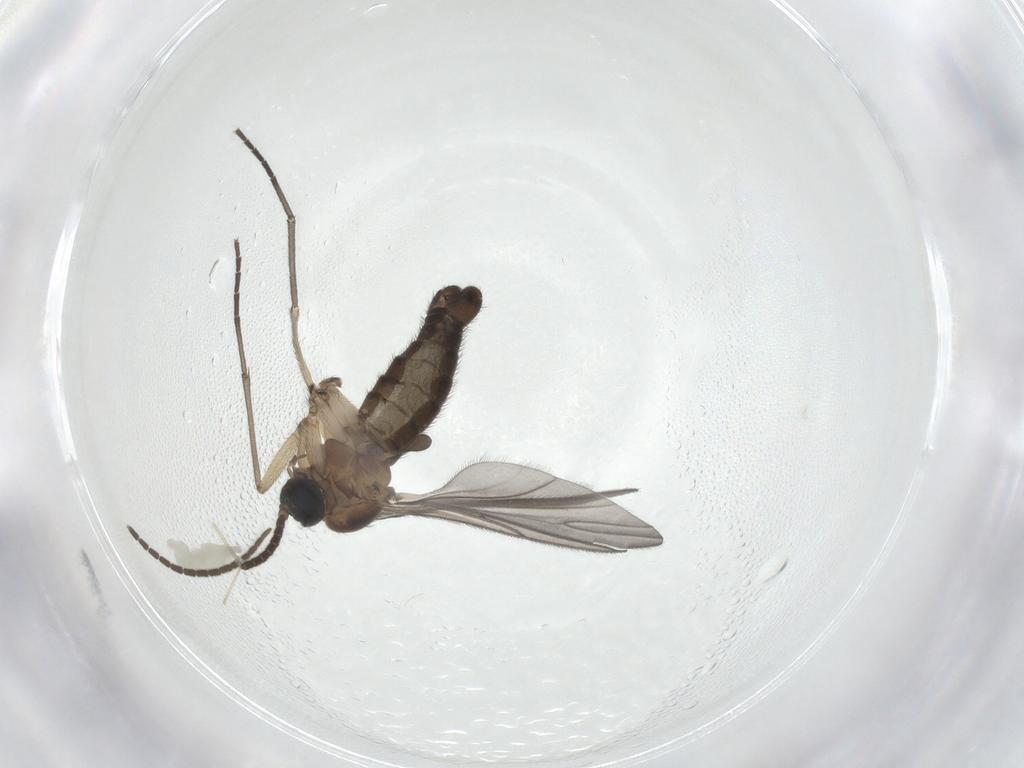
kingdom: Animalia
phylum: Arthropoda
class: Insecta
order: Diptera
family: Sciaridae
